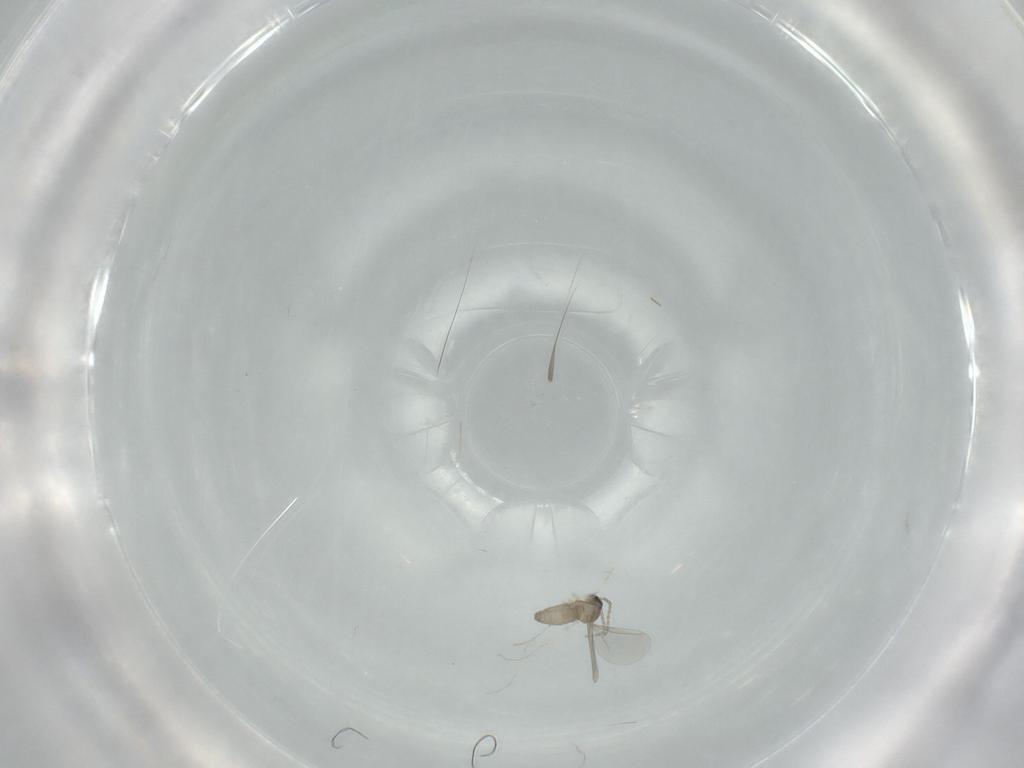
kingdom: Animalia
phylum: Arthropoda
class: Insecta
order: Diptera
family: Cecidomyiidae
